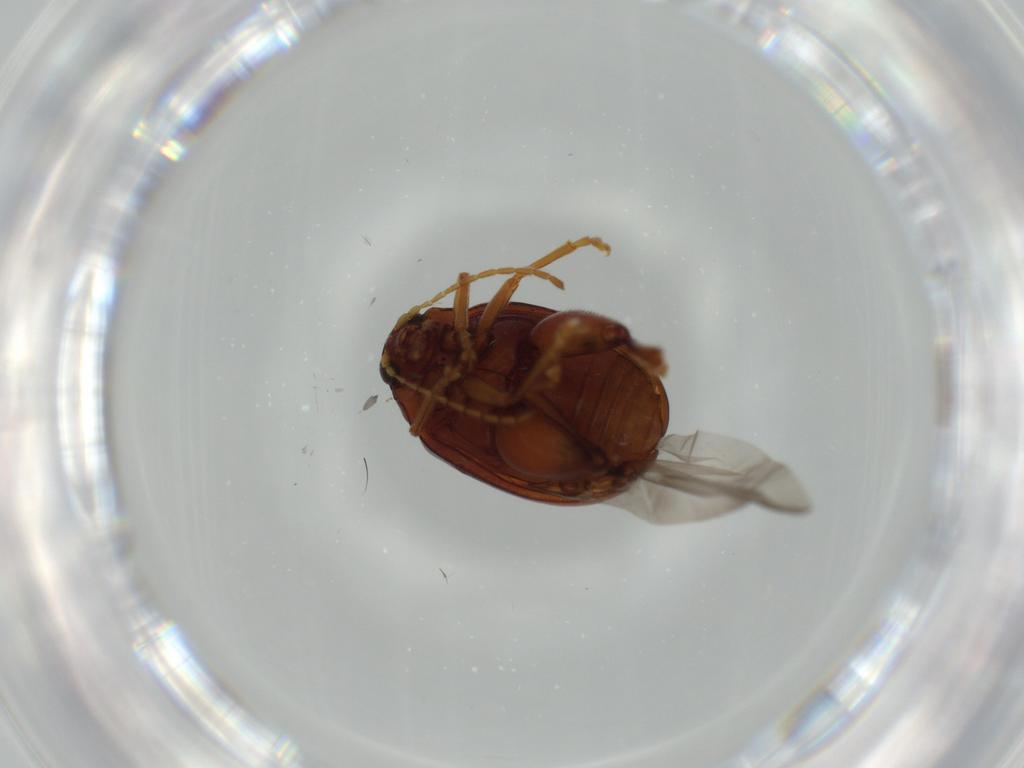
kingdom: Animalia
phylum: Arthropoda
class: Insecta
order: Coleoptera
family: Chrysomelidae
